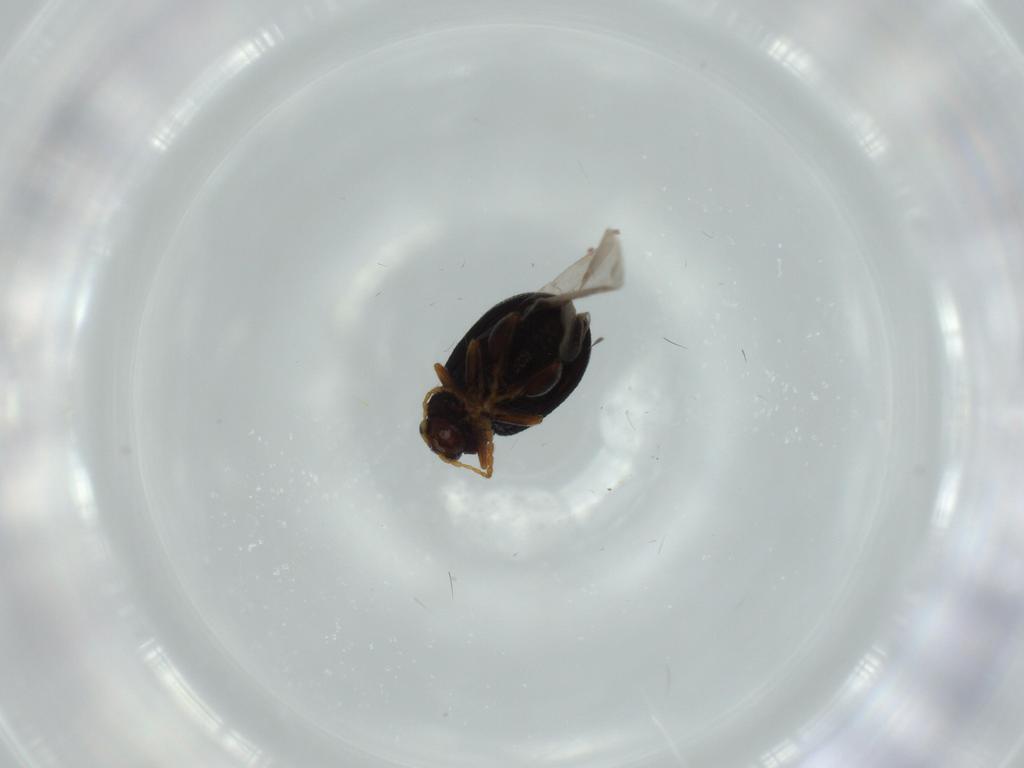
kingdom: Animalia
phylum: Arthropoda
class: Insecta
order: Coleoptera
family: Chrysomelidae
